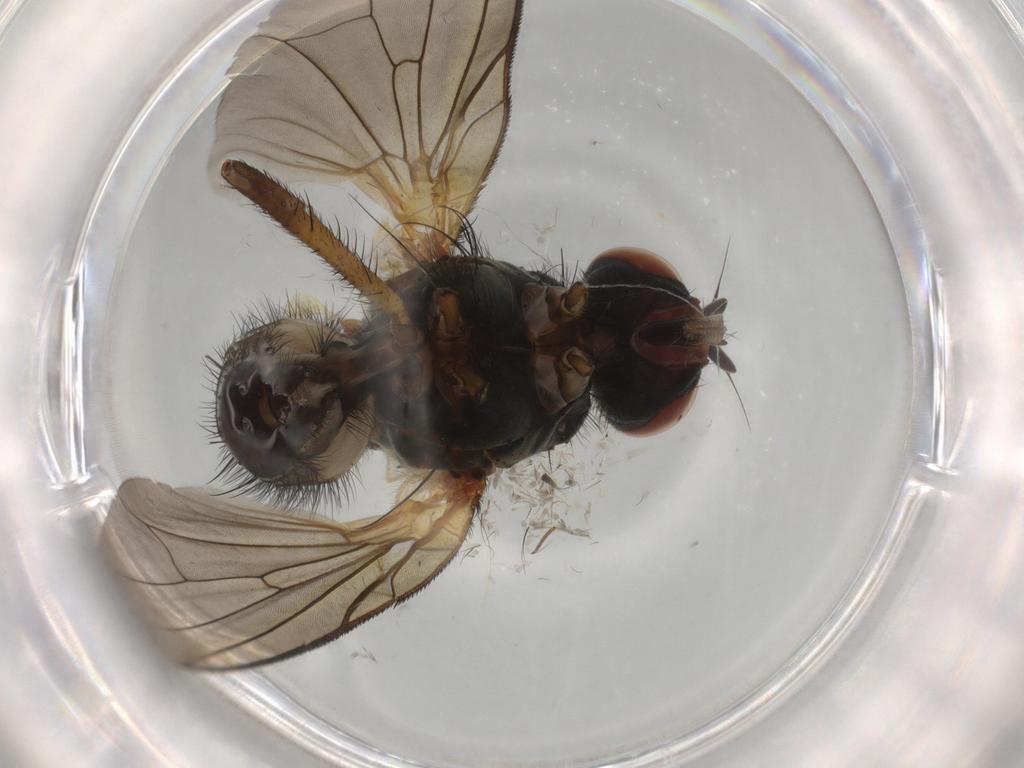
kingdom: Animalia
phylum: Arthropoda
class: Insecta
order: Diptera
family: Anthomyiidae
